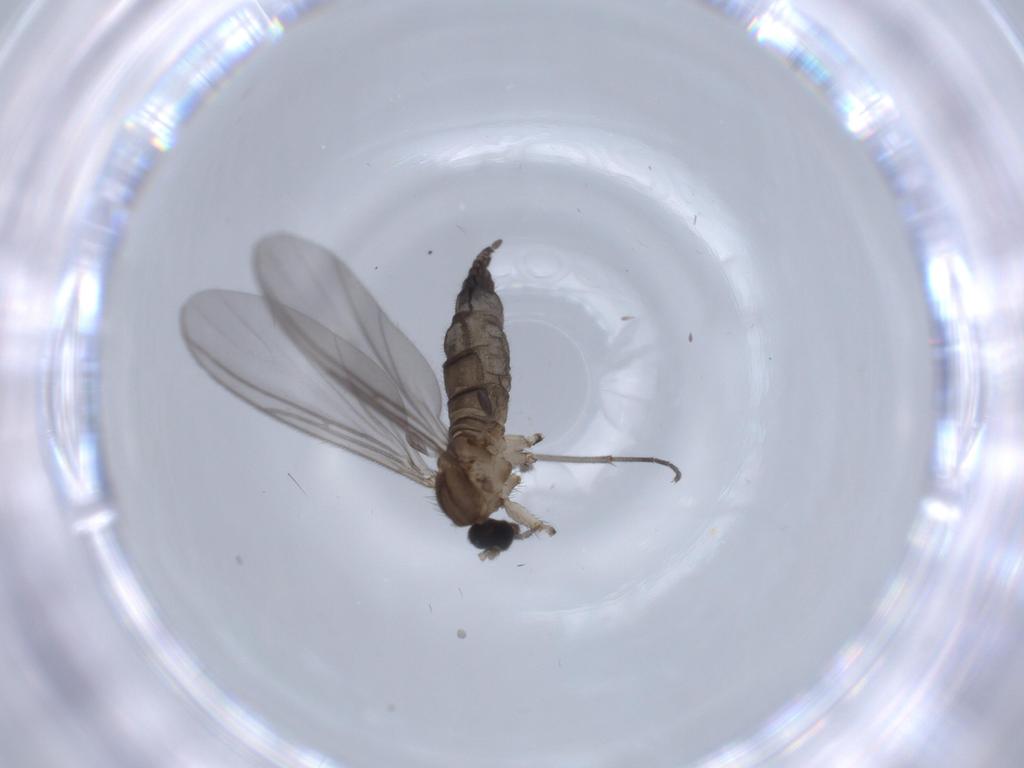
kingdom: Animalia
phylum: Arthropoda
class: Insecta
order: Diptera
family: Sciaridae
